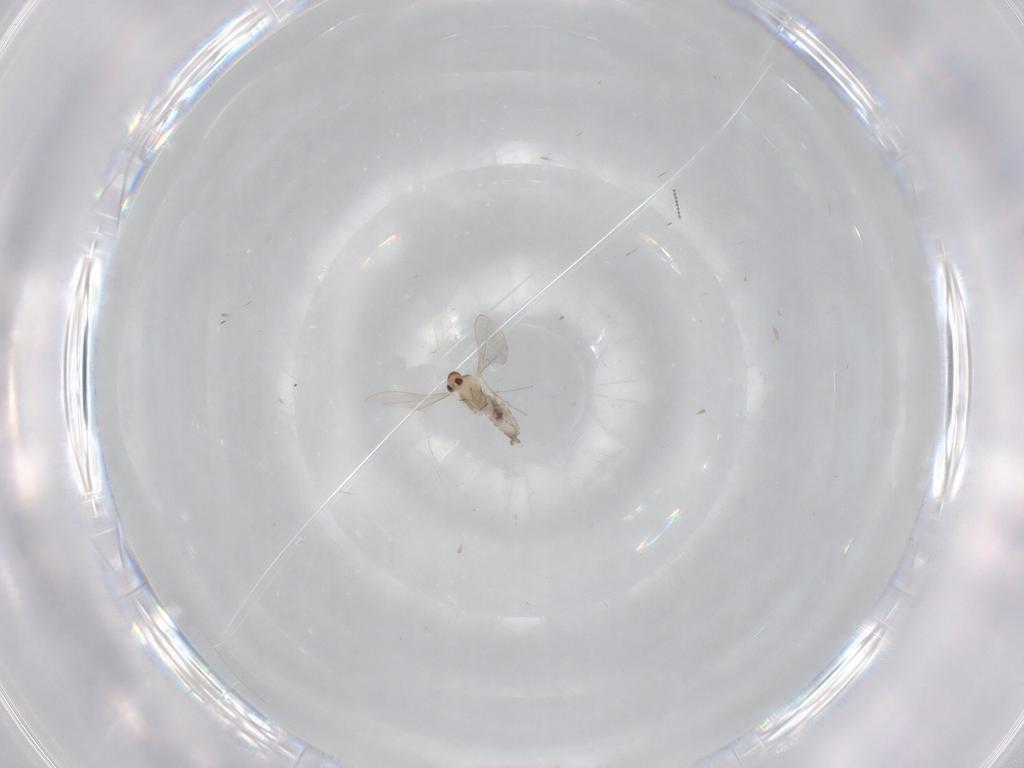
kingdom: Animalia
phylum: Arthropoda
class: Insecta
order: Diptera
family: Cecidomyiidae
